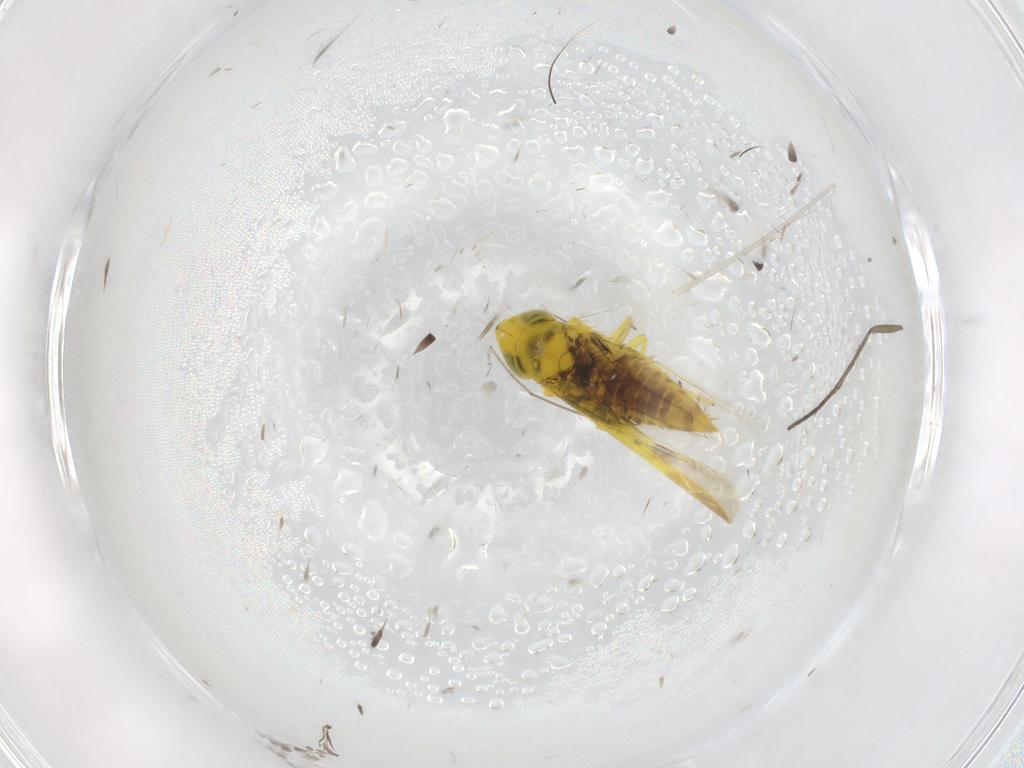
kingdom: Animalia
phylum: Arthropoda
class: Insecta
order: Hemiptera
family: Cicadellidae
